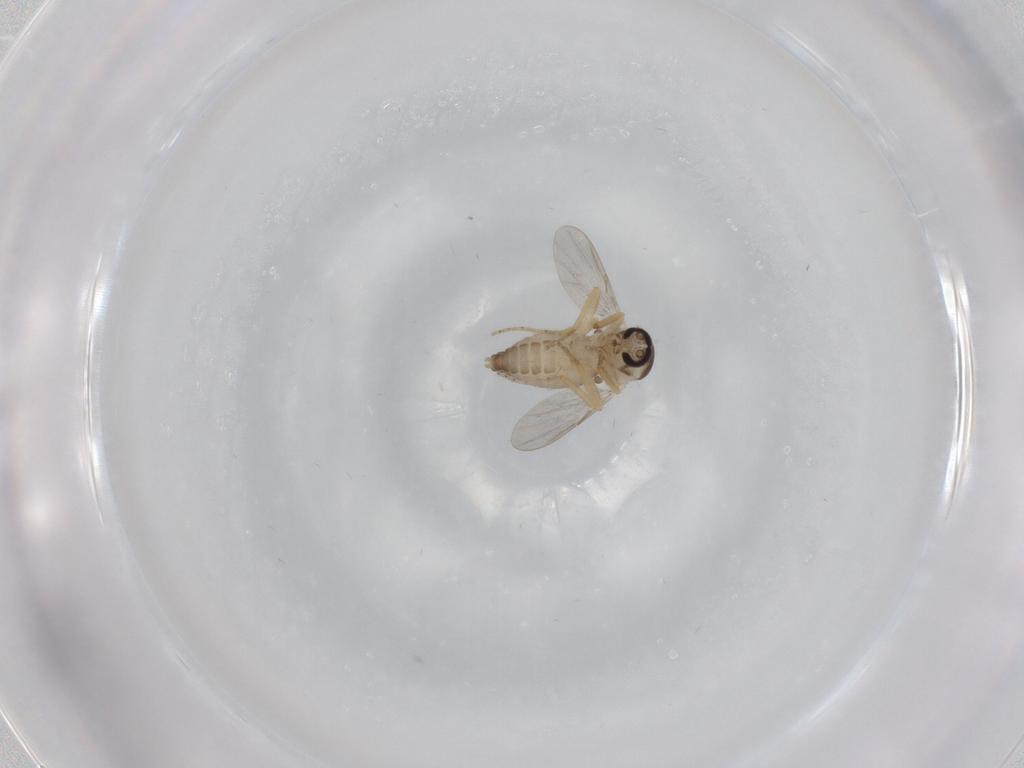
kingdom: Animalia
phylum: Arthropoda
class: Insecta
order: Diptera
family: Ceratopogonidae
